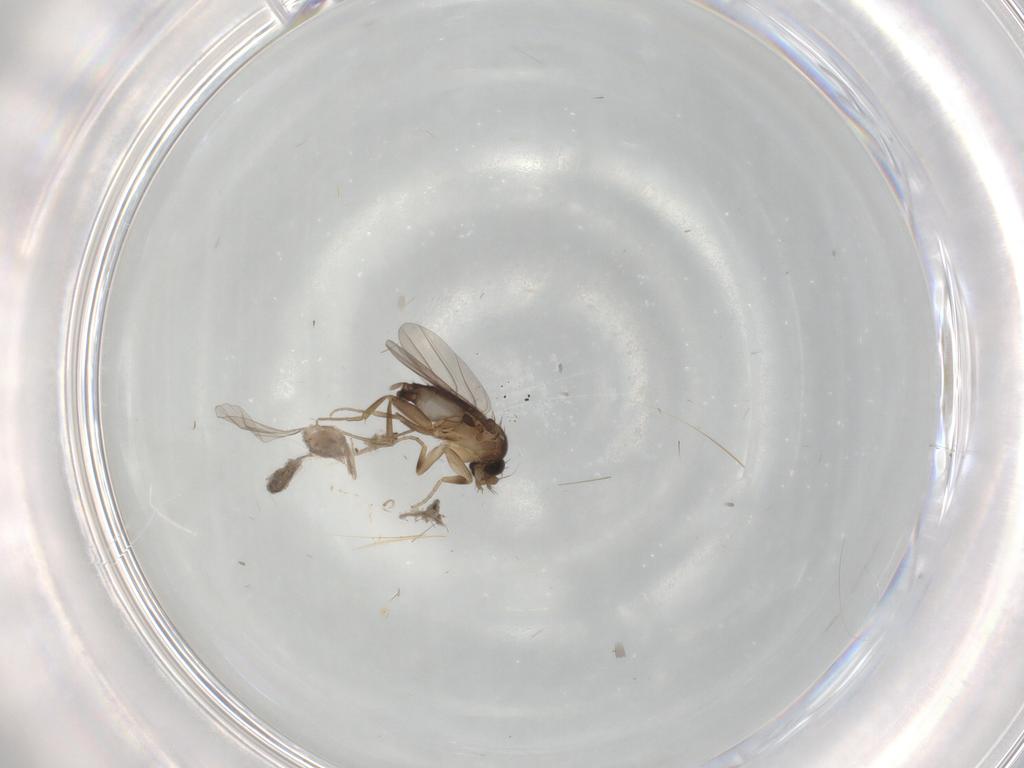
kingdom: Animalia
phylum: Arthropoda
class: Insecta
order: Diptera
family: Phoridae
